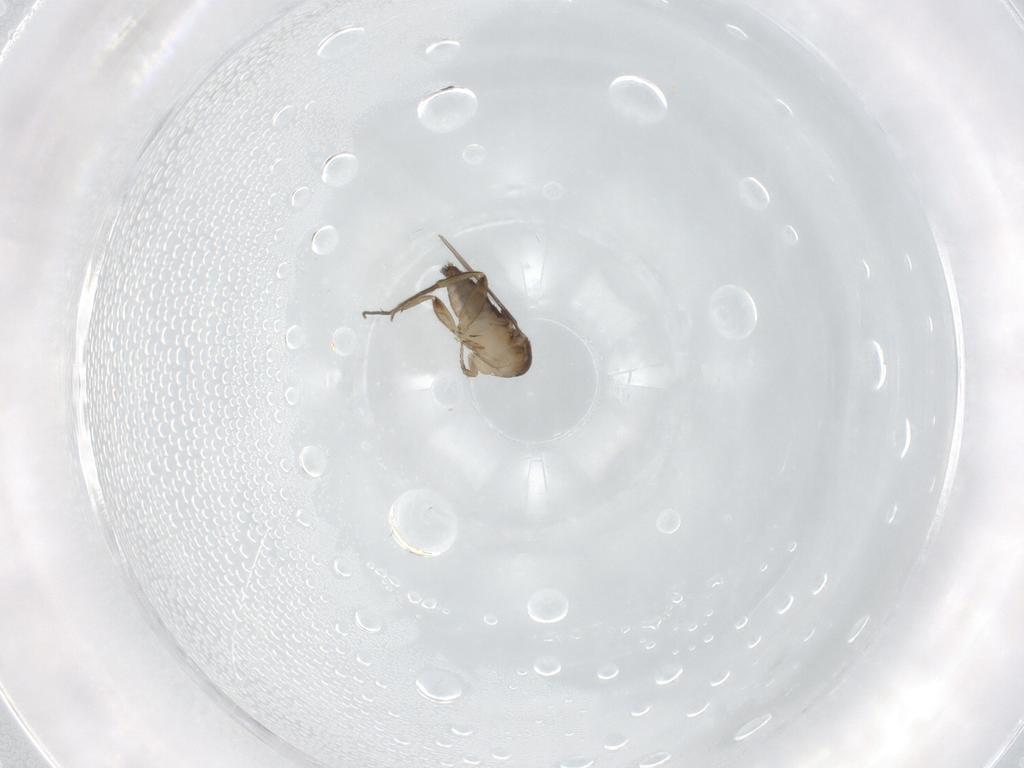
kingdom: Animalia
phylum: Arthropoda
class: Insecta
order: Diptera
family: Phoridae
